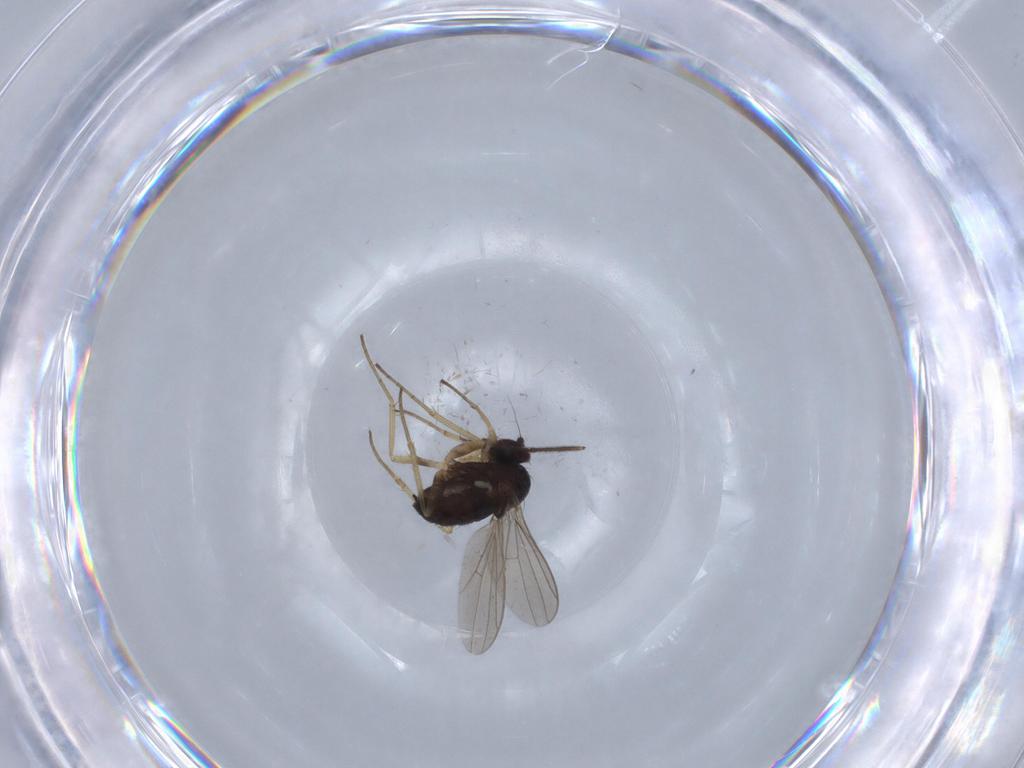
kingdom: Animalia
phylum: Arthropoda
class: Insecta
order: Diptera
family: Dolichopodidae
